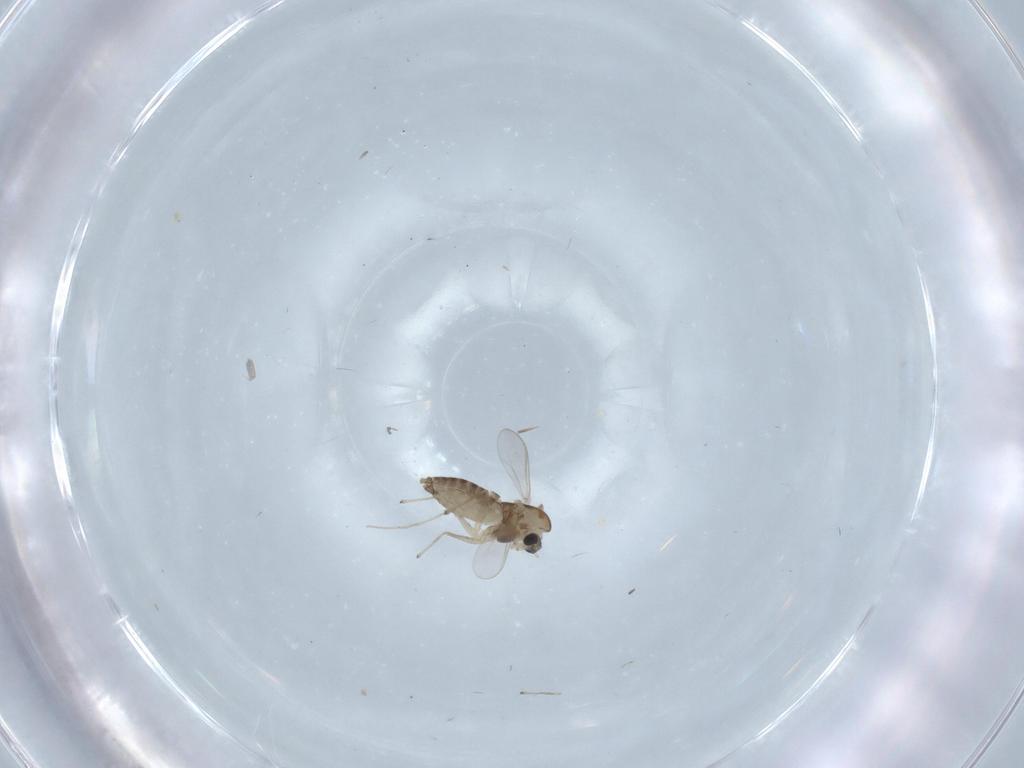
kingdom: Animalia
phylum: Arthropoda
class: Insecta
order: Diptera
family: Chironomidae
